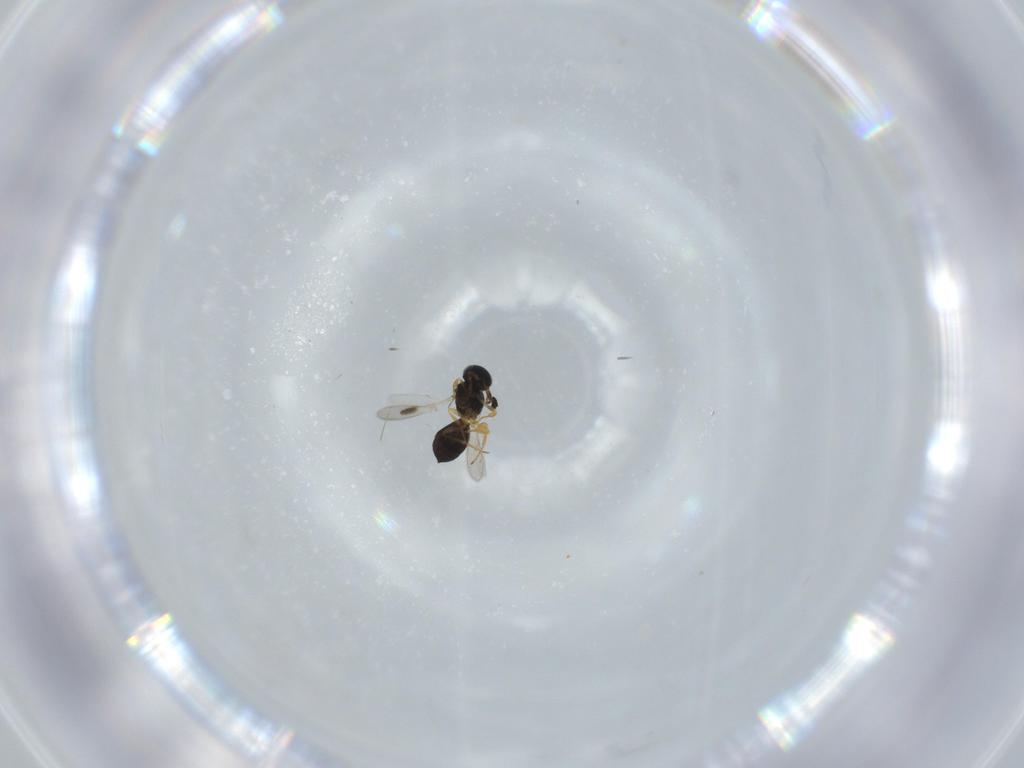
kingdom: Animalia
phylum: Arthropoda
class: Insecta
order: Hymenoptera
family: Scelionidae
